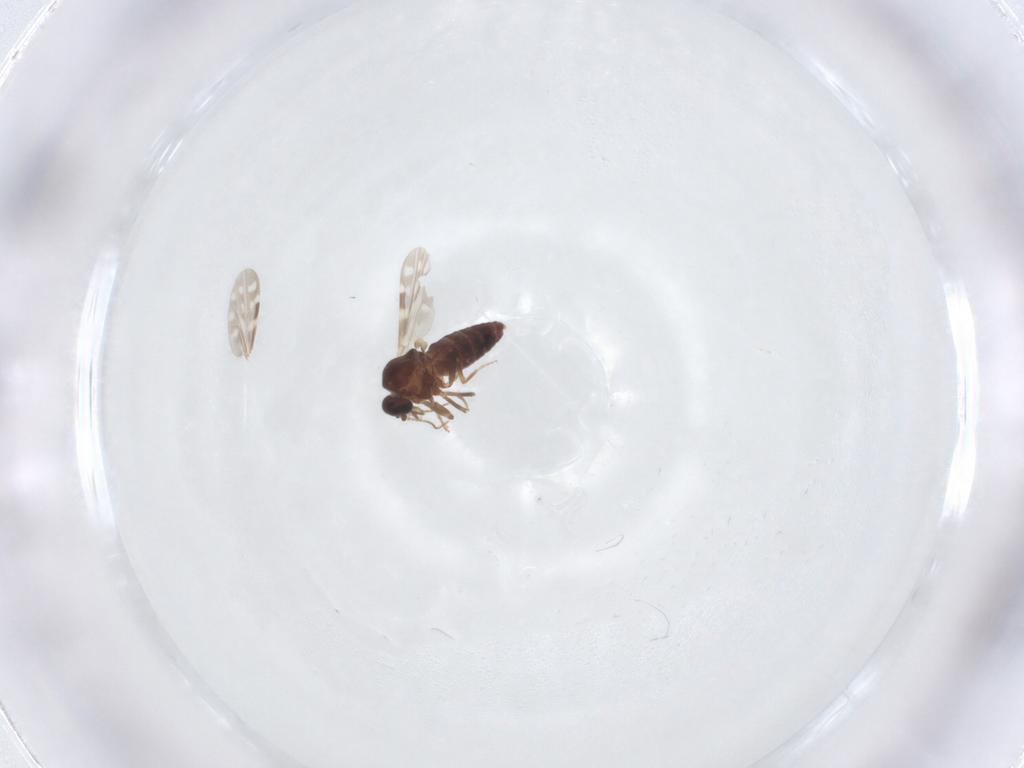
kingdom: Animalia
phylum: Arthropoda
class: Insecta
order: Diptera
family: Ceratopogonidae
